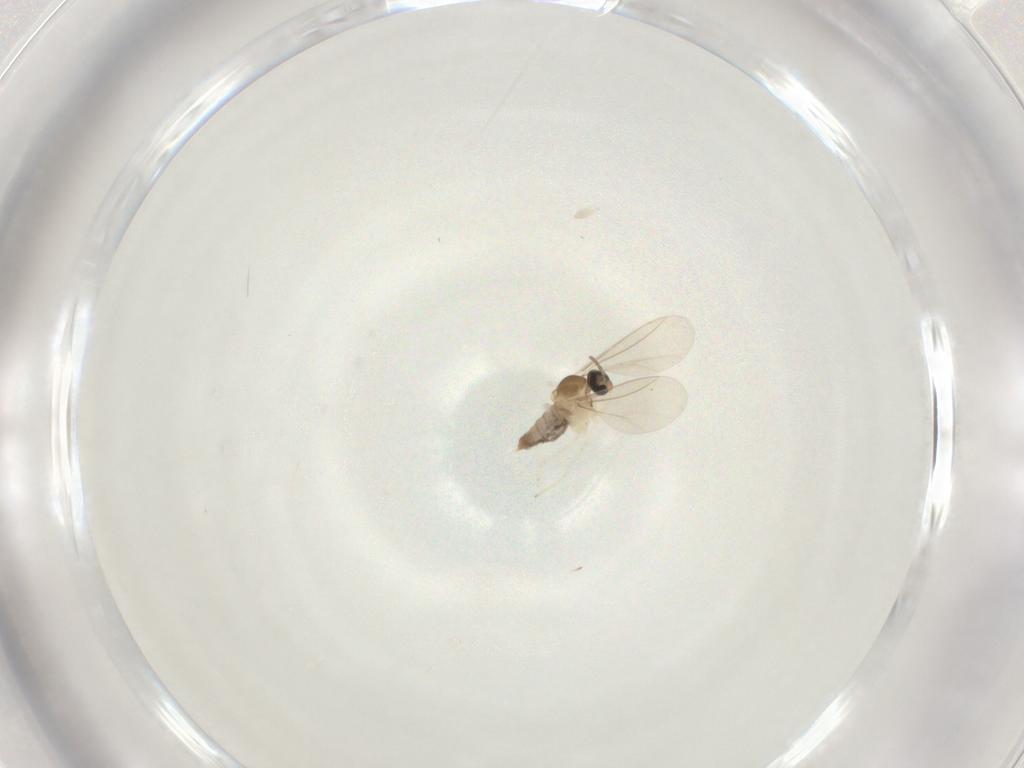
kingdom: Animalia
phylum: Arthropoda
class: Insecta
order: Diptera
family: Cecidomyiidae
